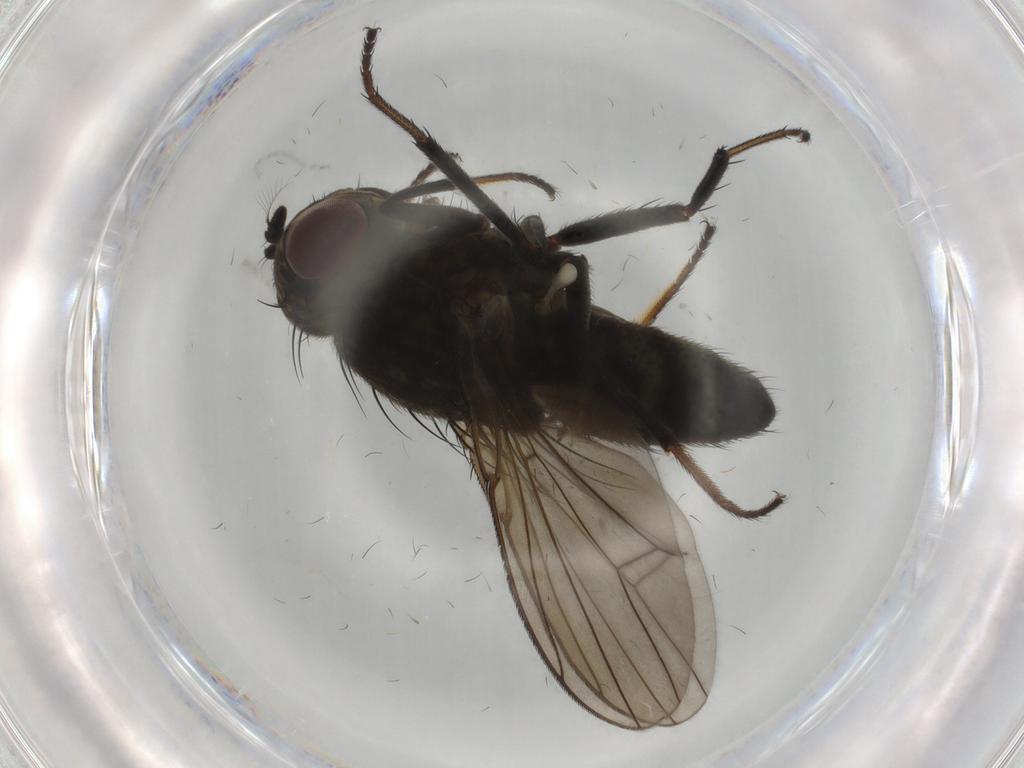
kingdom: Animalia
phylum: Arthropoda
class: Insecta
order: Diptera
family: Ephydridae
